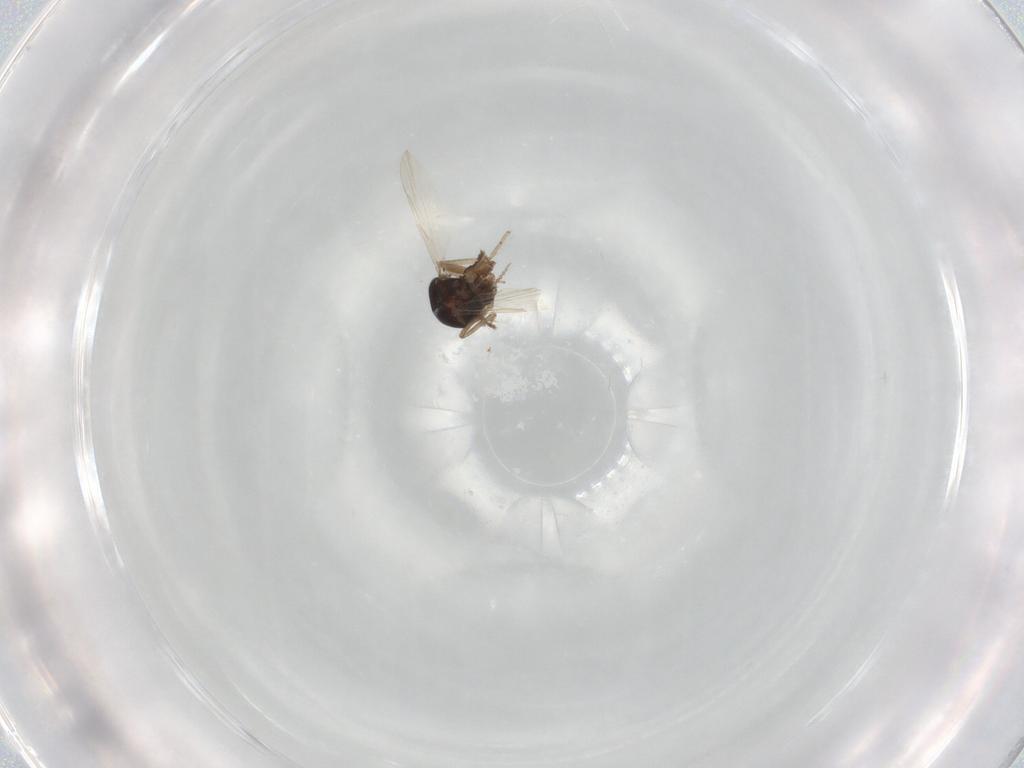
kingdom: Animalia
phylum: Arthropoda
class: Insecta
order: Diptera
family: Ceratopogonidae
